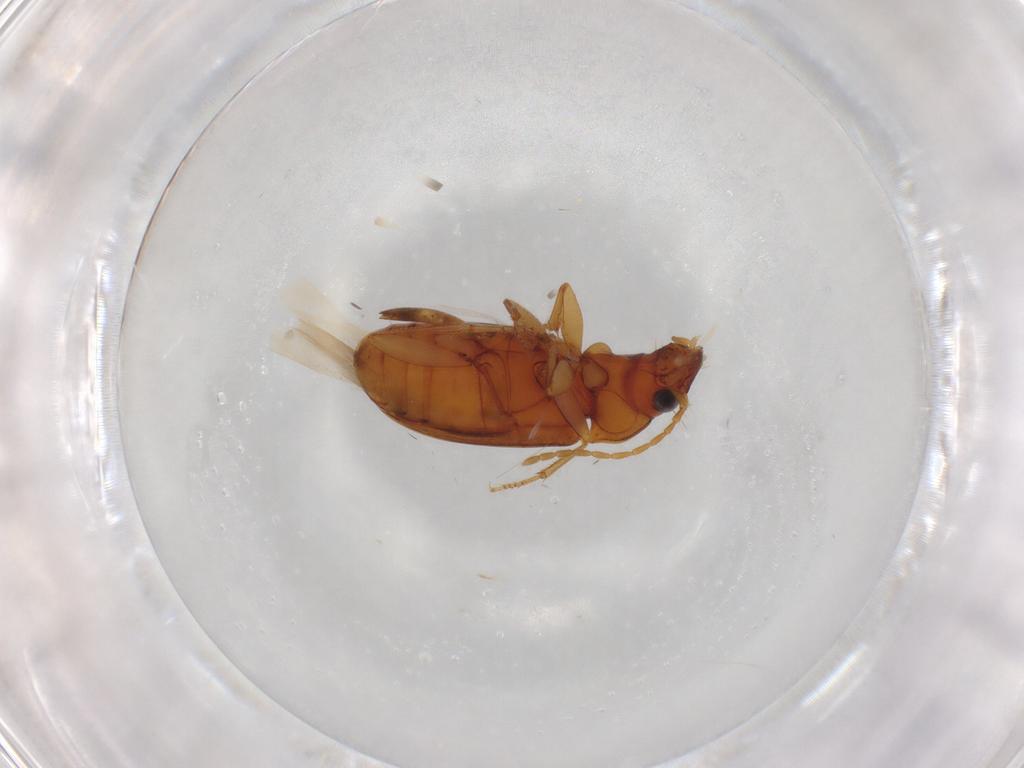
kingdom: Animalia
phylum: Arthropoda
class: Insecta
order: Coleoptera
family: Carabidae
